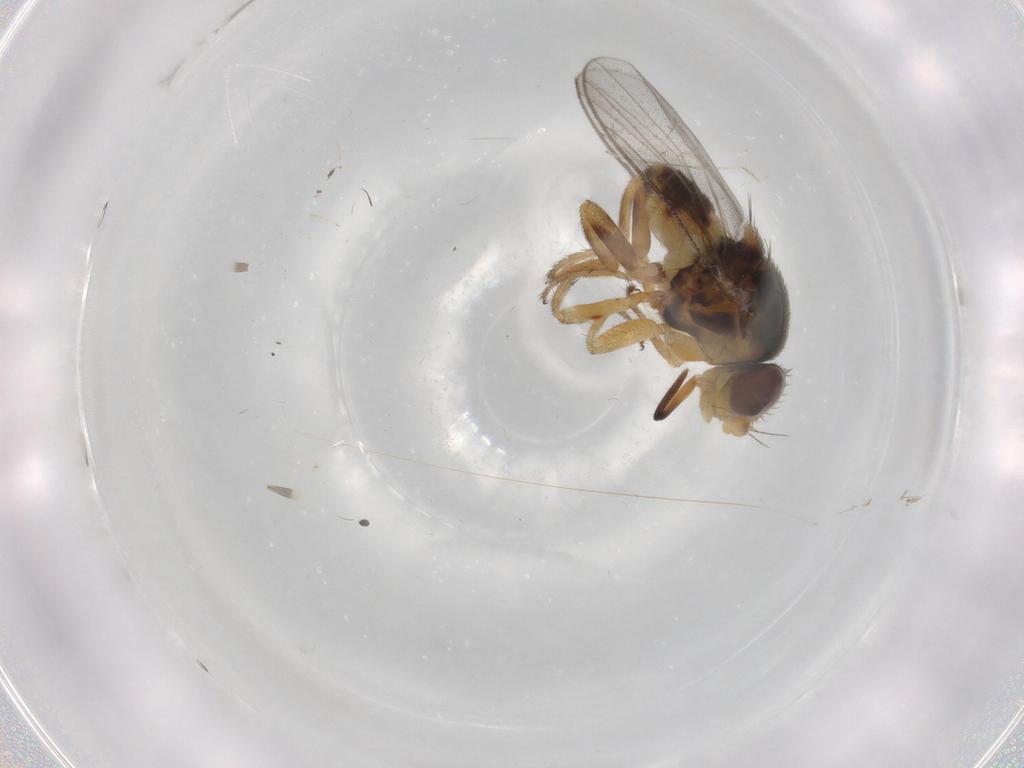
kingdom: Animalia
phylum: Arthropoda
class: Insecta
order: Diptera
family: Chloropidae
